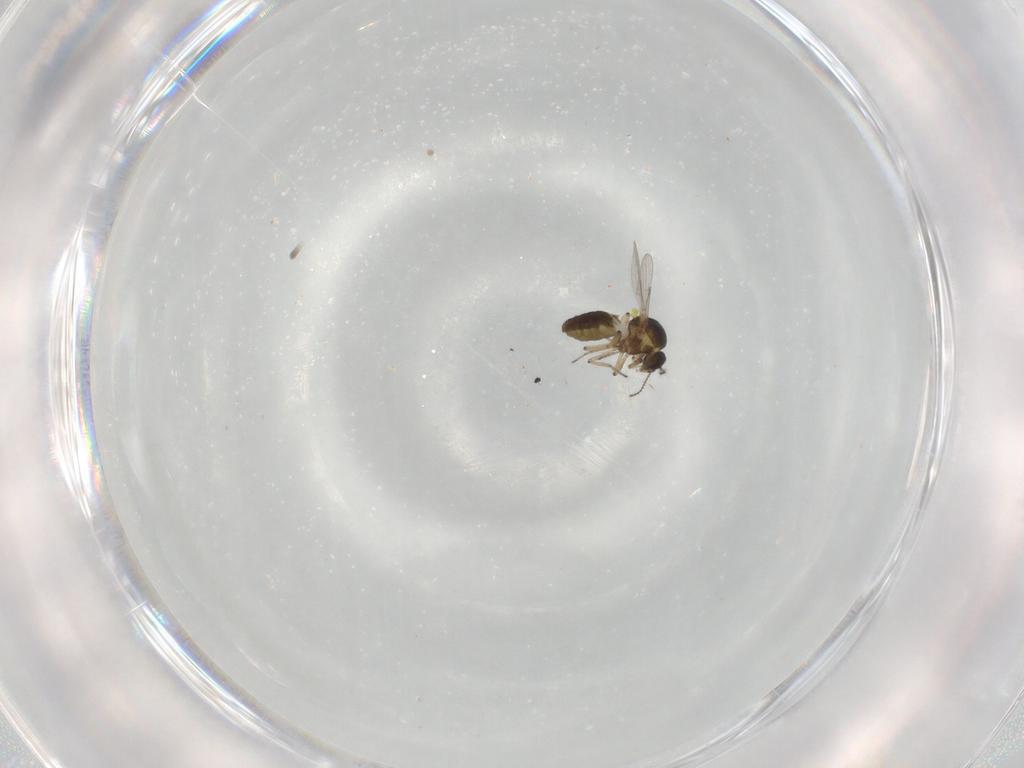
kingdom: Animalia
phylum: Arthropoda
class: Insecta
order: Diptera
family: Ceratopogonidae
